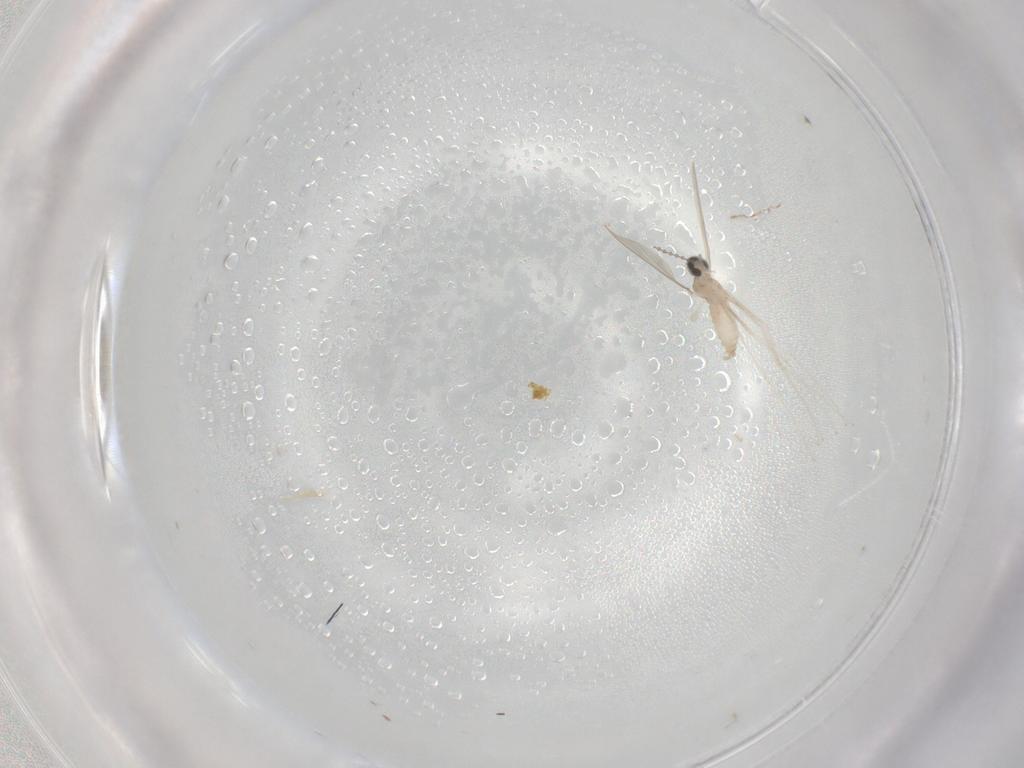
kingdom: Animalia
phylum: Arthropoda
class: Insecta
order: Diptera
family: Cecidomyiidae
